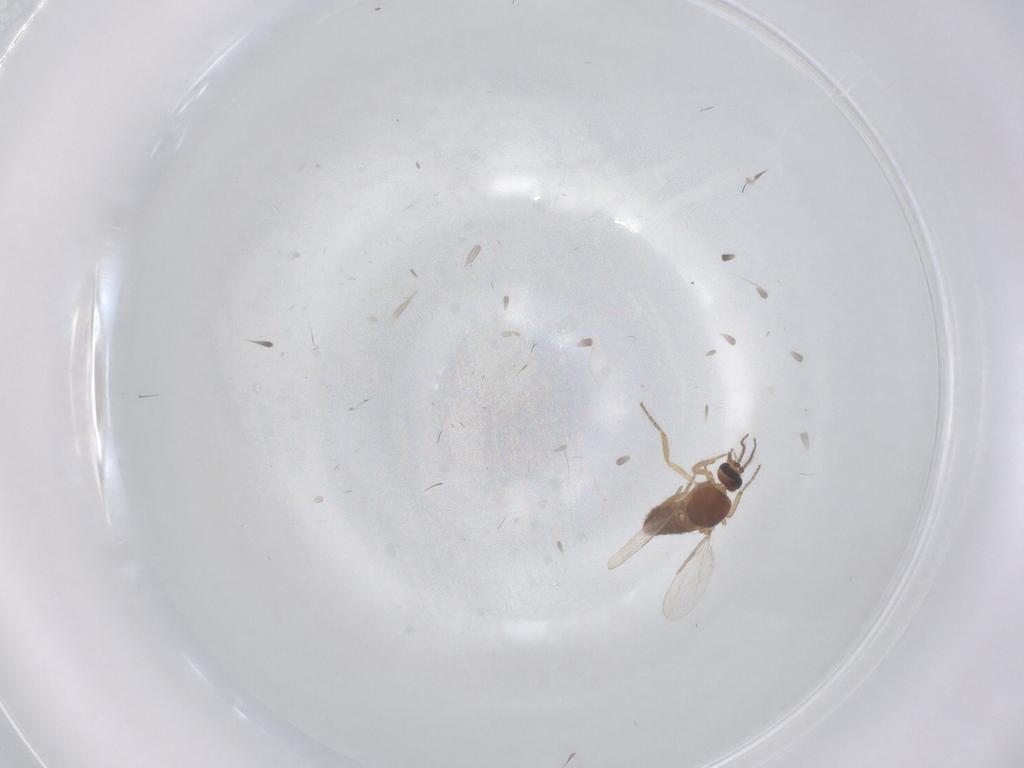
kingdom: Animalia
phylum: Arthropoda
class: Insecta
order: Diptera
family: Ceratopogonidae
